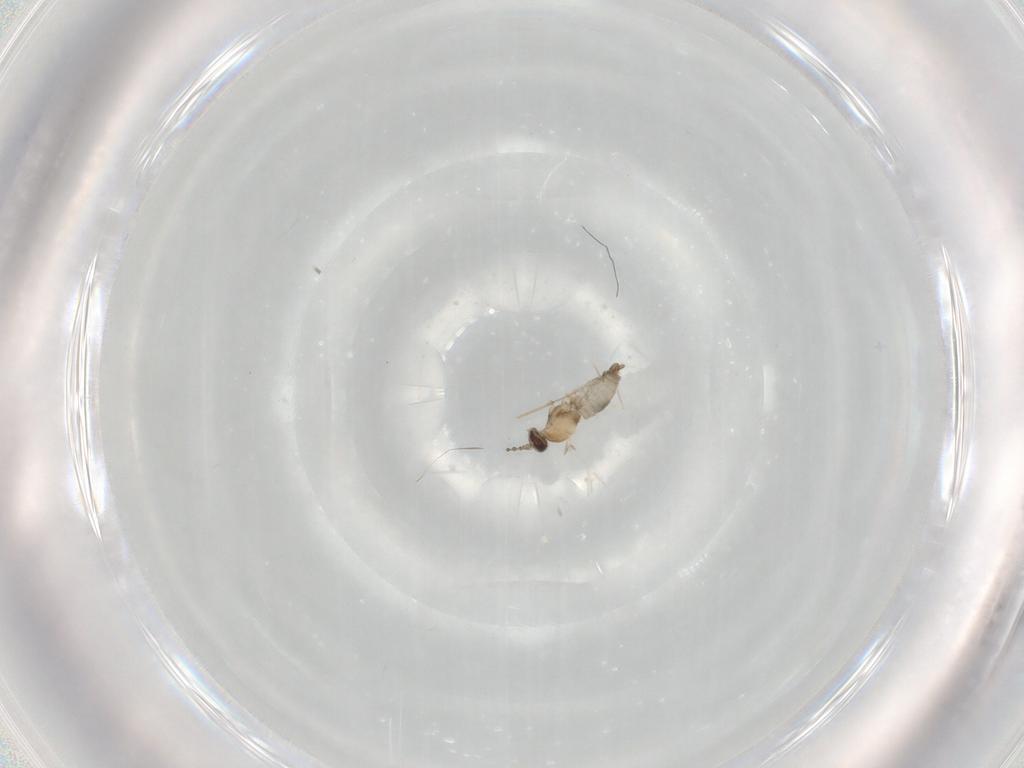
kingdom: Animalia
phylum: Arthropoda
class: Insecta
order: Diptera
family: Cecidomyiidae
